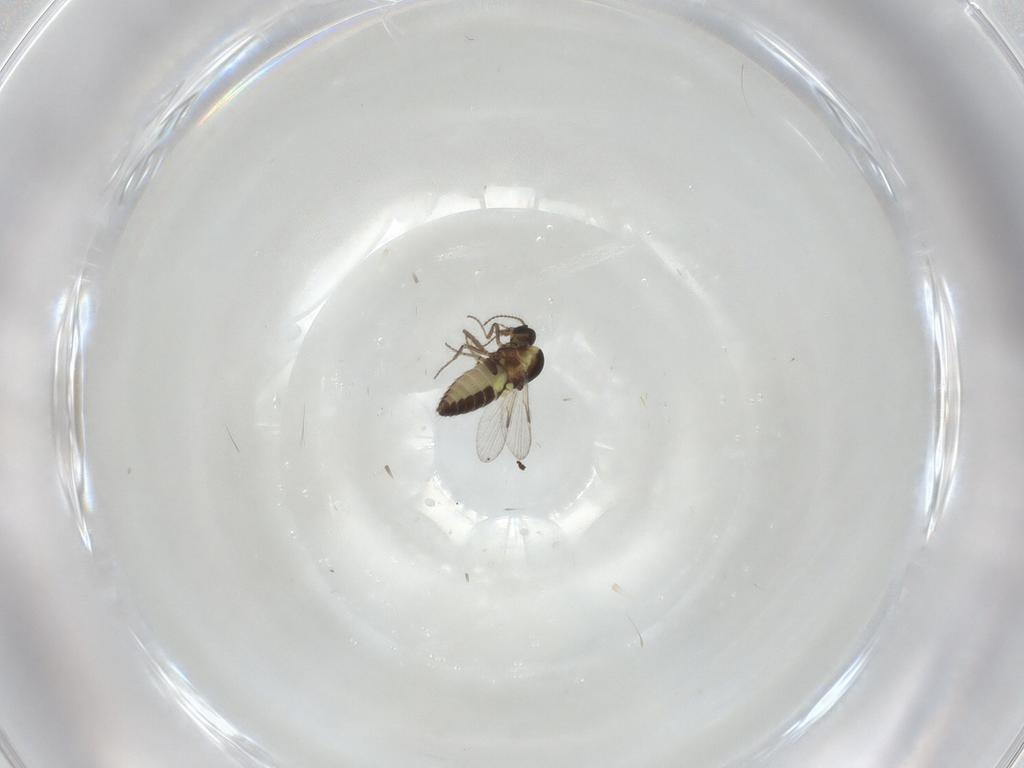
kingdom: Animalia
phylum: Arthropoda
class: Insecta
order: Diptera
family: Ceratopogonidae
